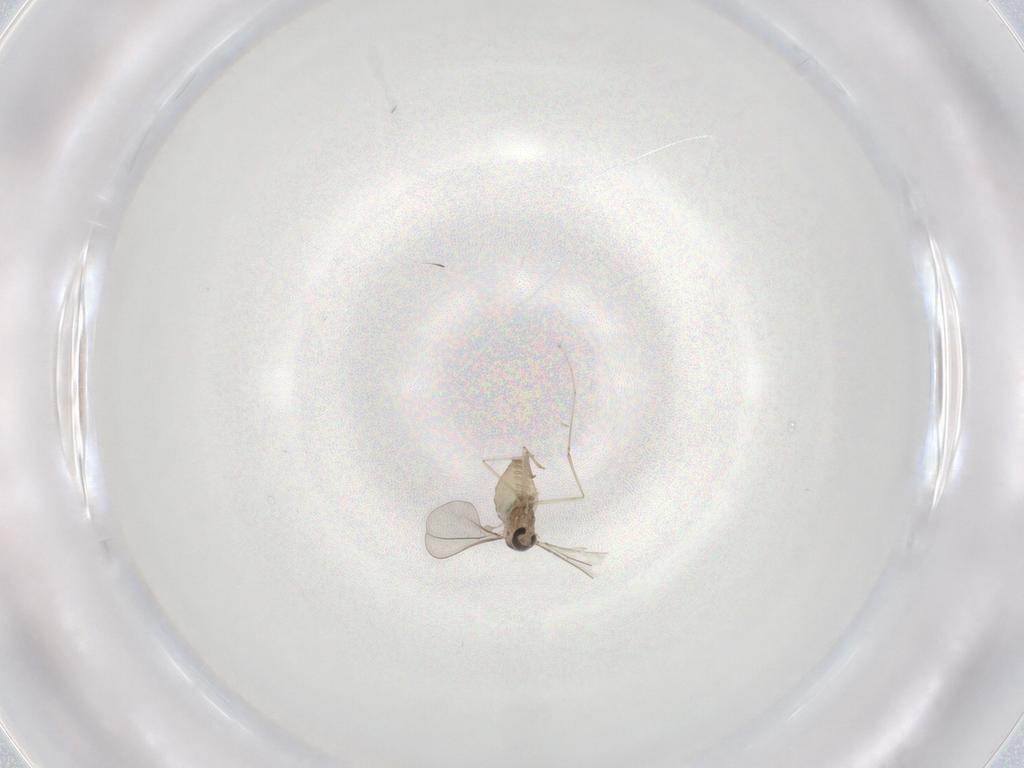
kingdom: Animalia
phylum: Arthropoda
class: Insecta
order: Diptera
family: Cecidomyiidae
